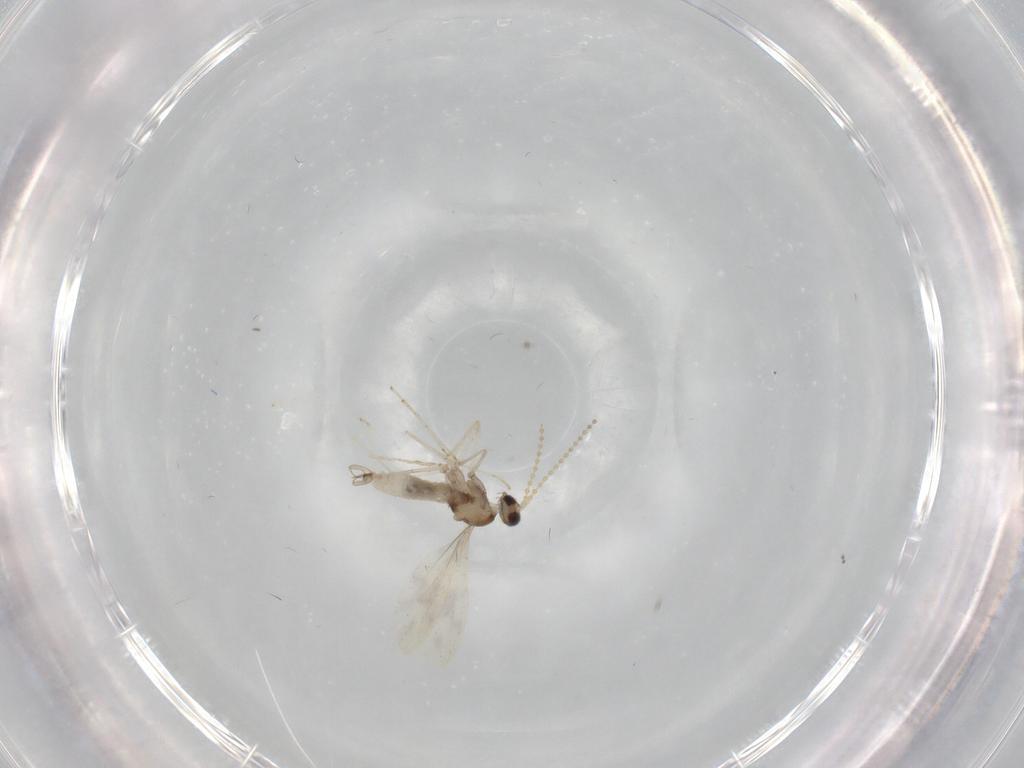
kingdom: Animalia
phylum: Arthropoda
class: Insecta
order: Diptera
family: Cecidomyiidae
